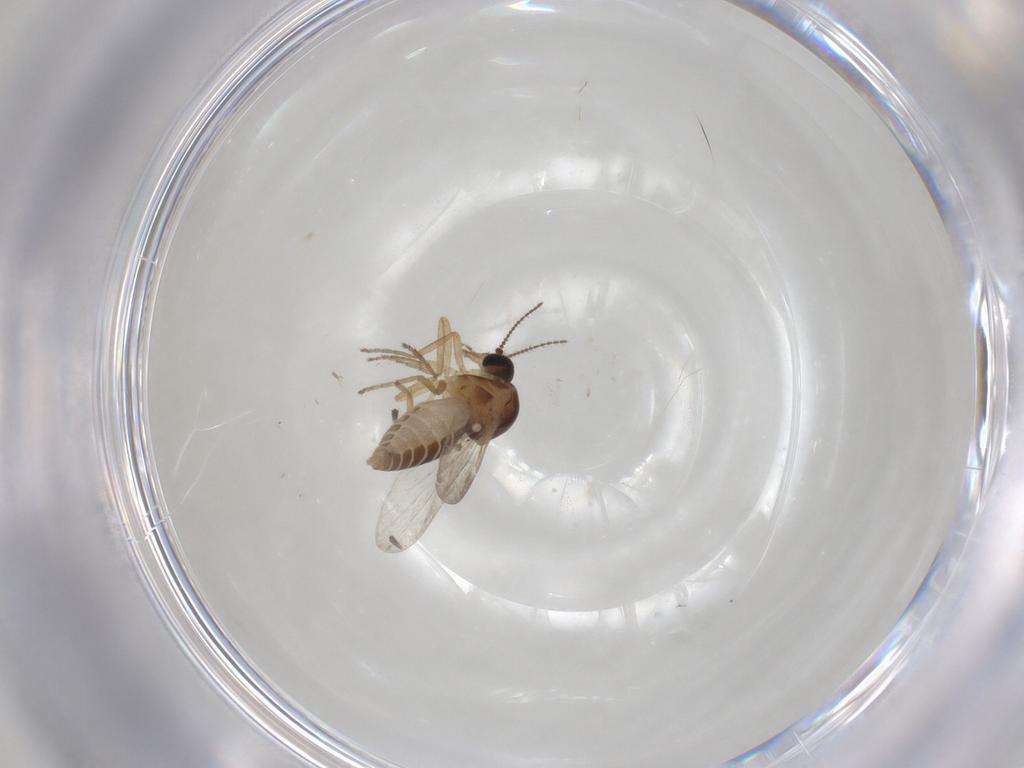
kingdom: Animalia
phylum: Arthropoda
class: Insecta
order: Diptera
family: Ceratopogonidae
